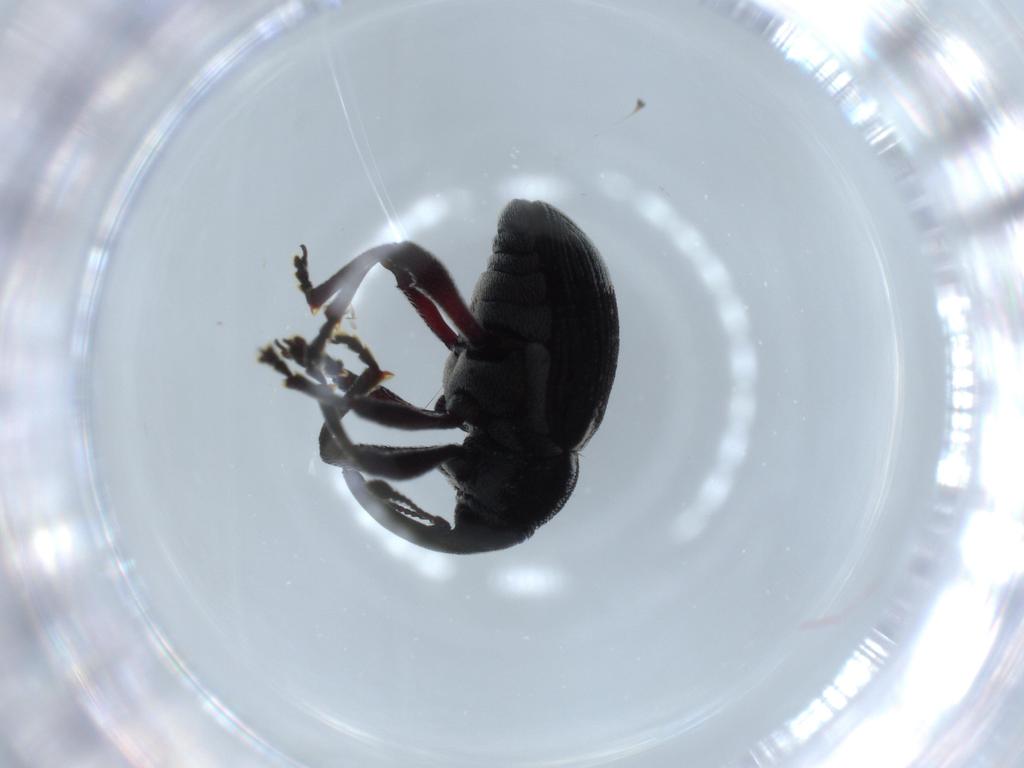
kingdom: Animalia
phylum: Arthropoda
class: Insecta
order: Coleoptera
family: Curculionidae
